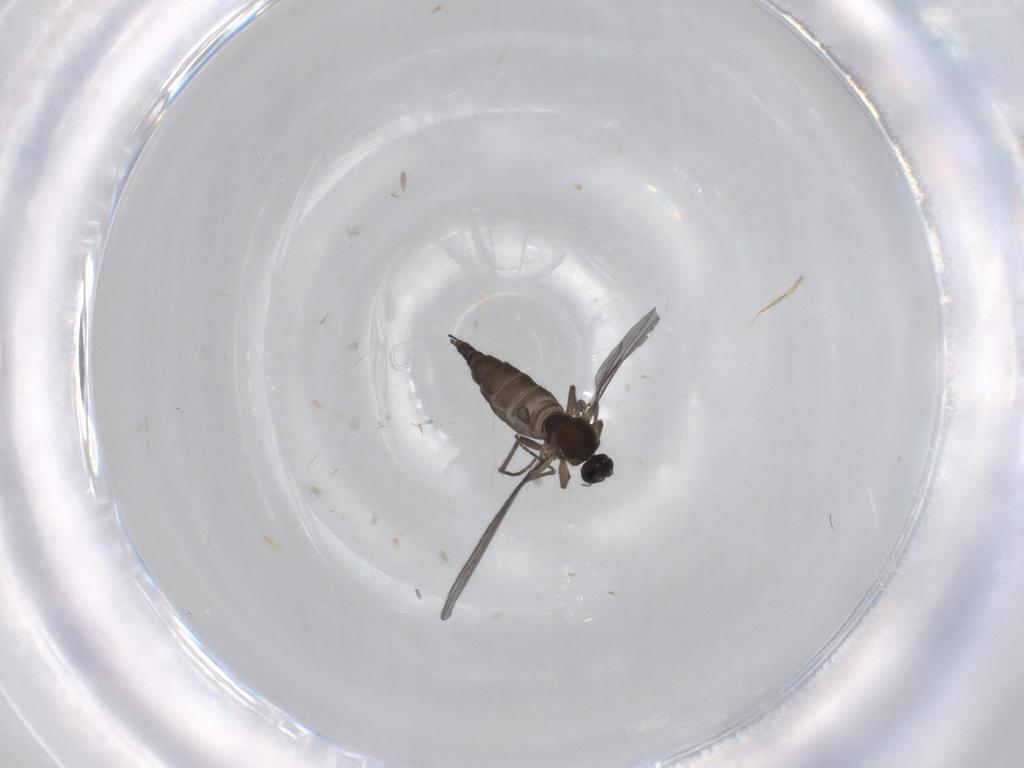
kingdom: Animalia
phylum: Arthropoda
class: Insecta
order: Diptera
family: Sciaridae
